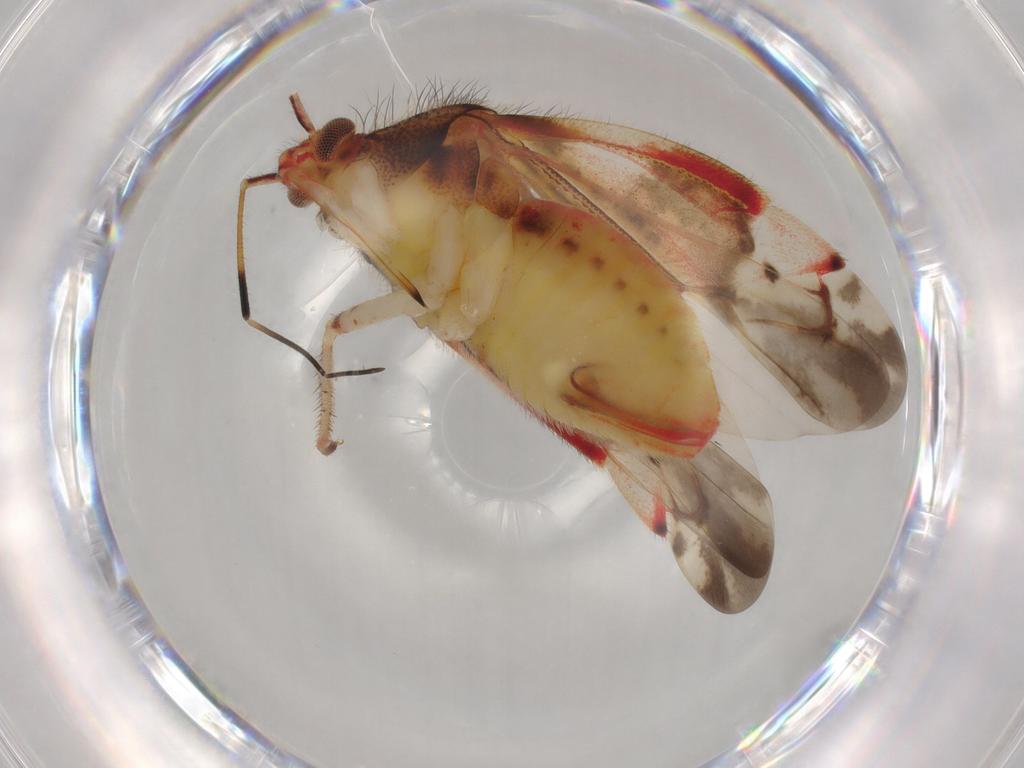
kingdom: Animalia
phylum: Arthropoda
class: Insecta
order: Hemiptera
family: Miridae
